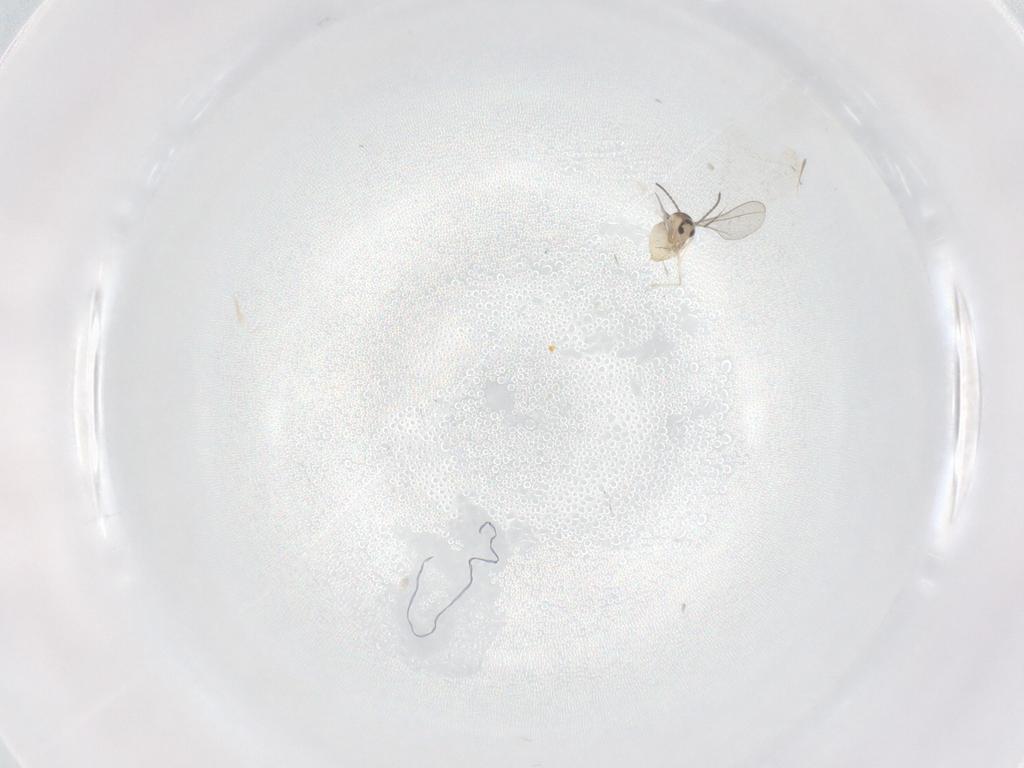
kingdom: Animalia
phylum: Arthropoda
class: Insecta
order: Diptera
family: Cecidomyiidae
